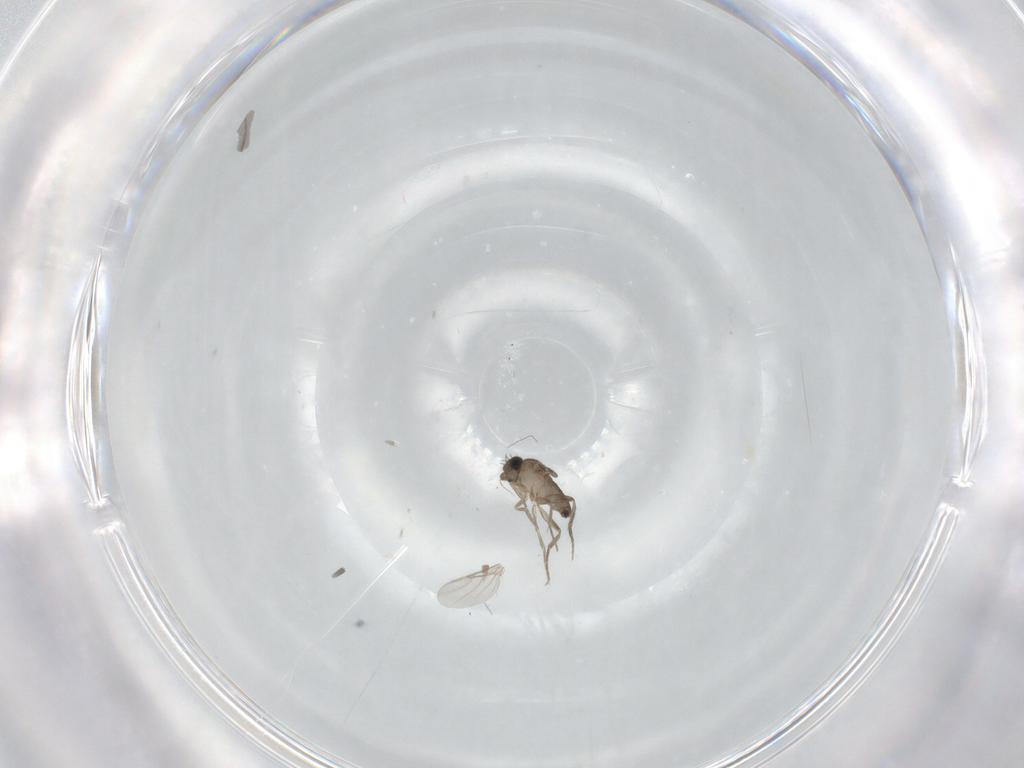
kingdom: Animalia
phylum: Arthropoda
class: Insecta
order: Diptera
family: Phoridae
